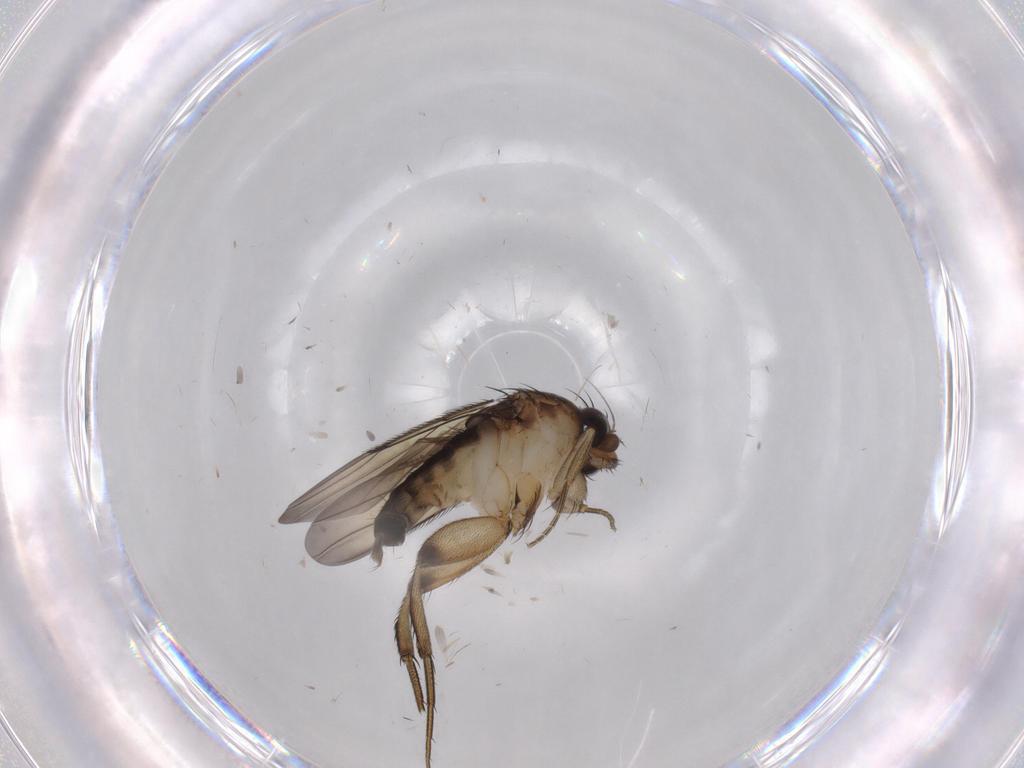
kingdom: Animalia
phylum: Arthropoda
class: Insecta
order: Diptera
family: Phoridae
